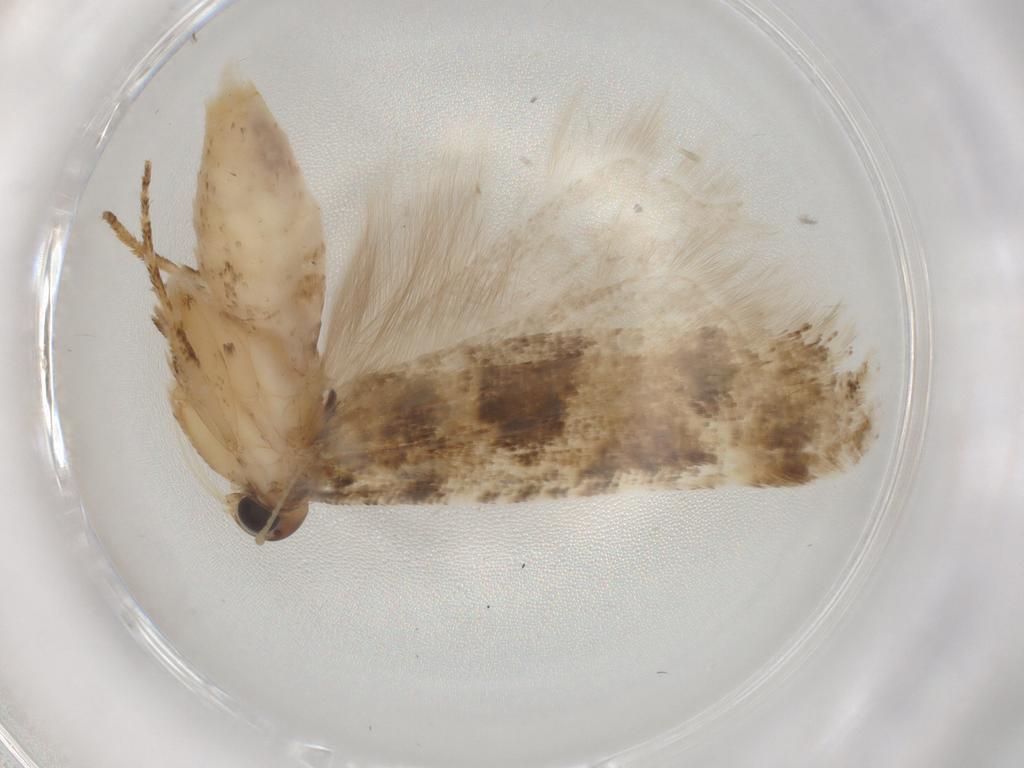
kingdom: Animalia
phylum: Arthropoda
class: Insecta
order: Lepidoptera
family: Gelechiidae
